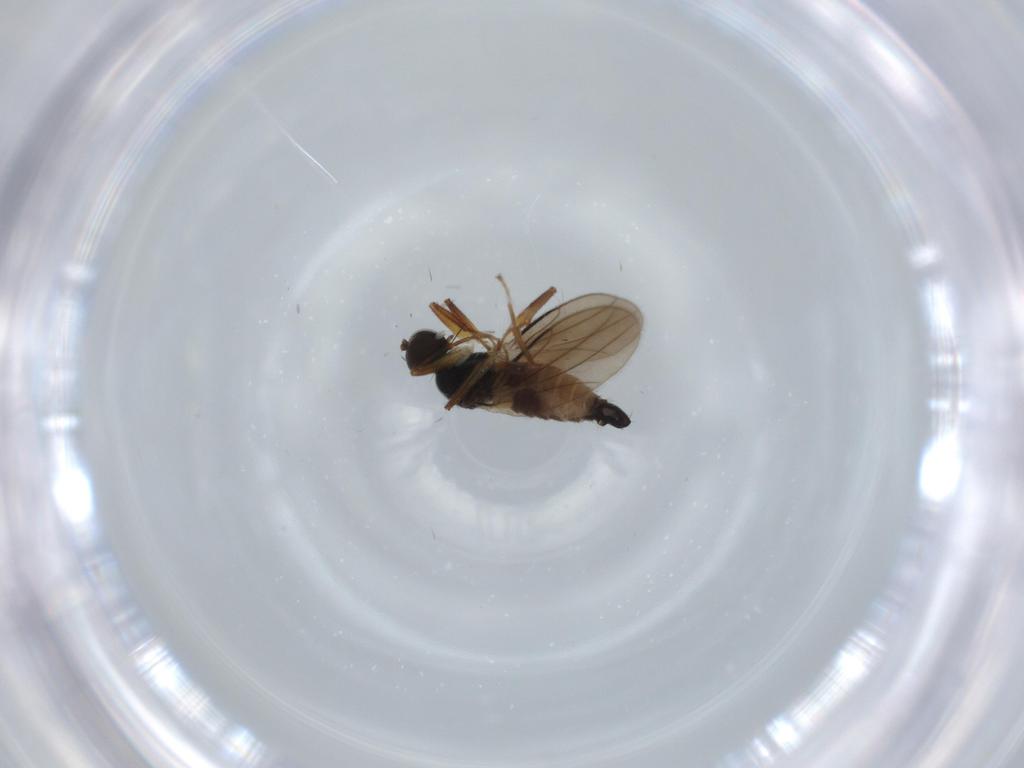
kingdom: Animalia
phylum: Arthropoda
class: Insecta
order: Diptera
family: Hybotidae
